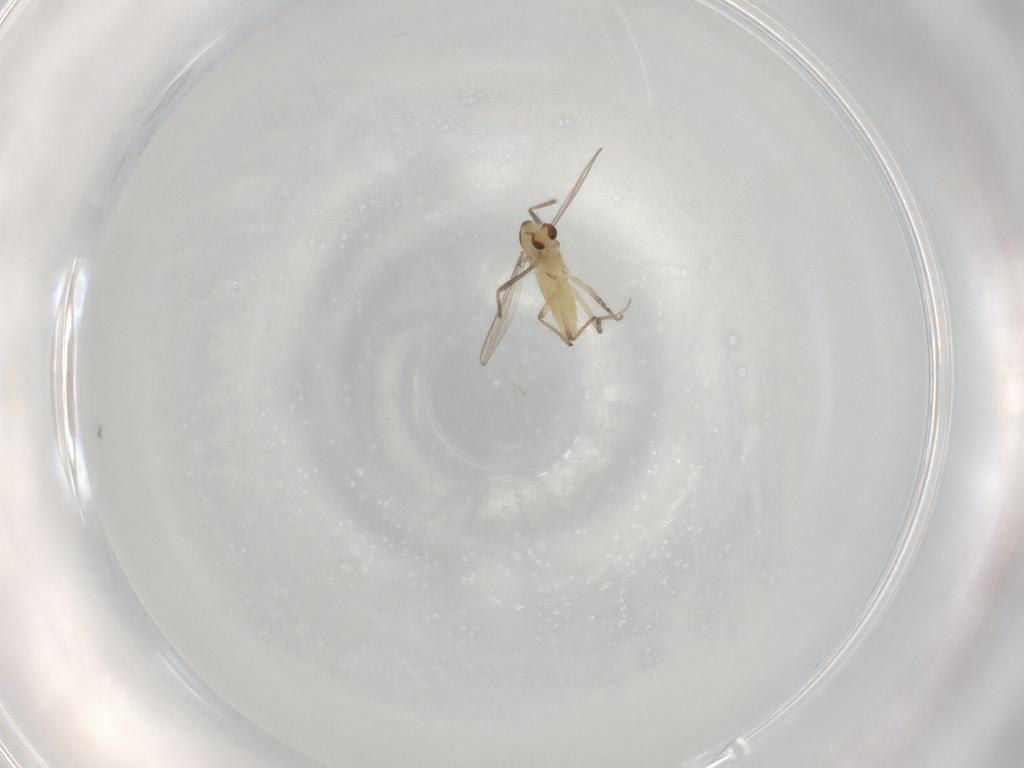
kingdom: Animalia
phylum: Arthropoda
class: Insecta
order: Diptera
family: Chironomidae
